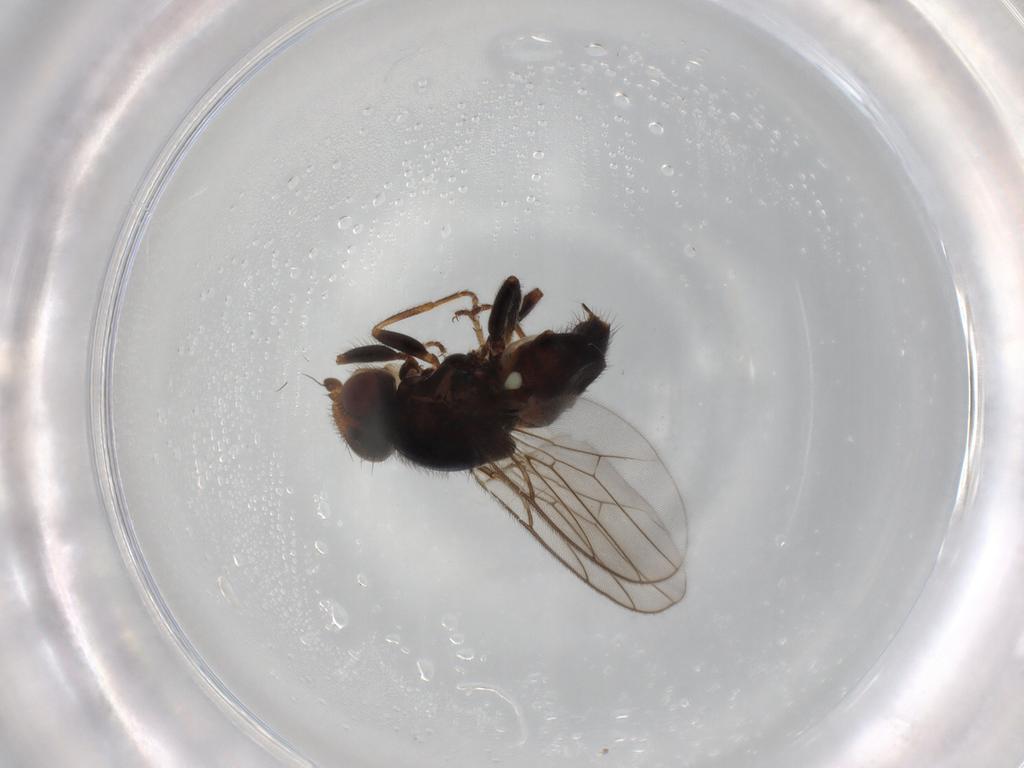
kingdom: Animalia
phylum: Arthropoda
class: Insecta
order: Diptera
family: Chloropidae
